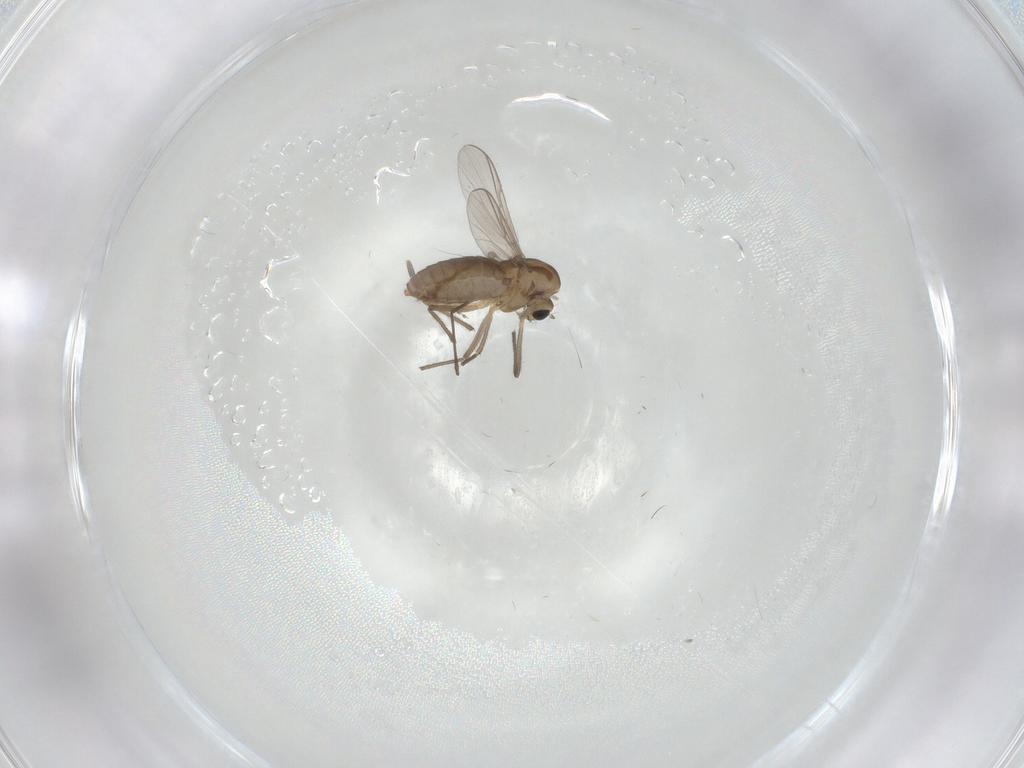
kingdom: Animalia
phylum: Arthropoda
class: Insecta
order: Diptera
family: Chironomidae
